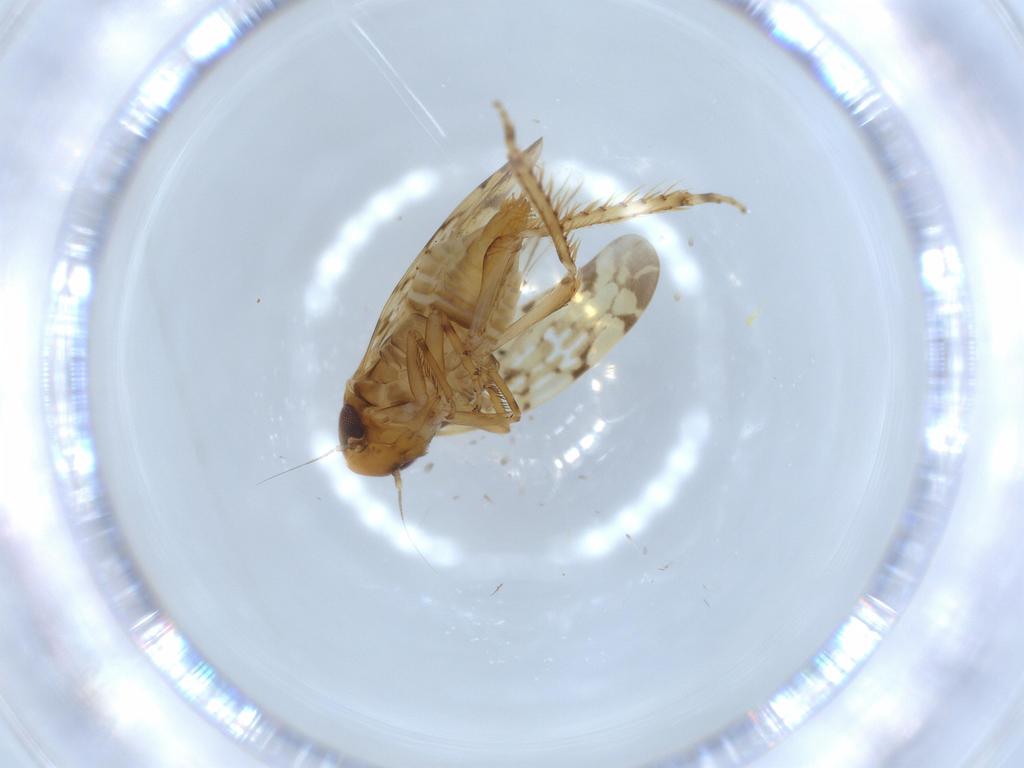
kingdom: Animalia
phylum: Arthropoda
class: Insecta
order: Hemiptera
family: Cicadellidae
